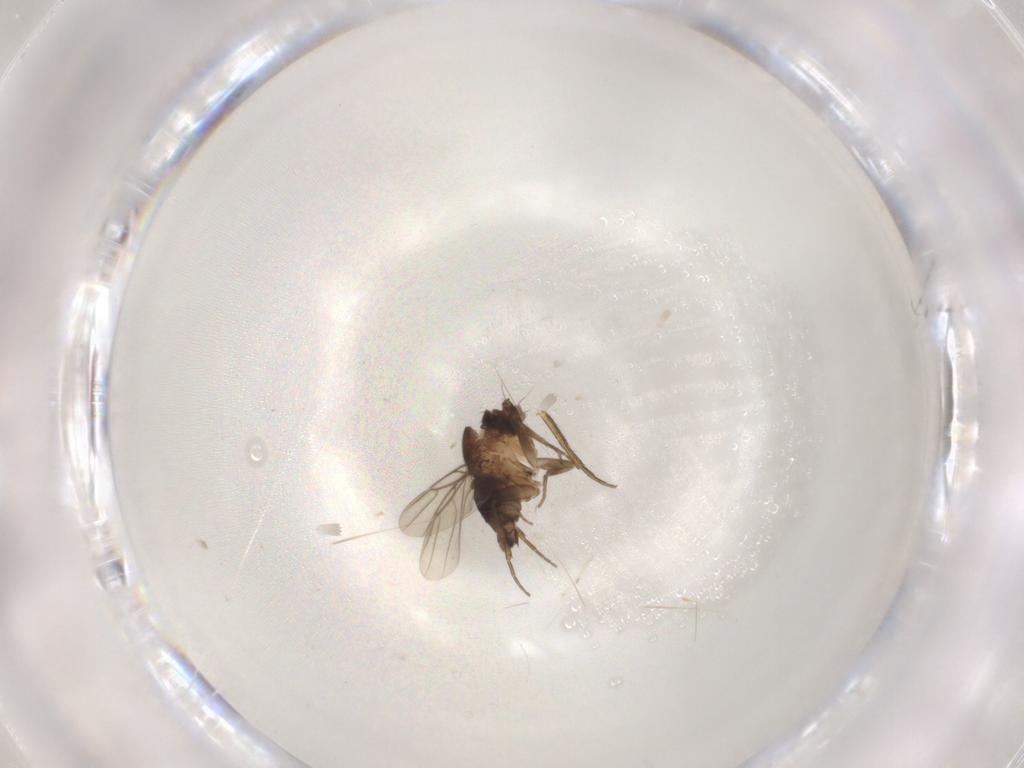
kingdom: Animalia
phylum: Arthropoda
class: Insecta
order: Diptera
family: Phoridae
